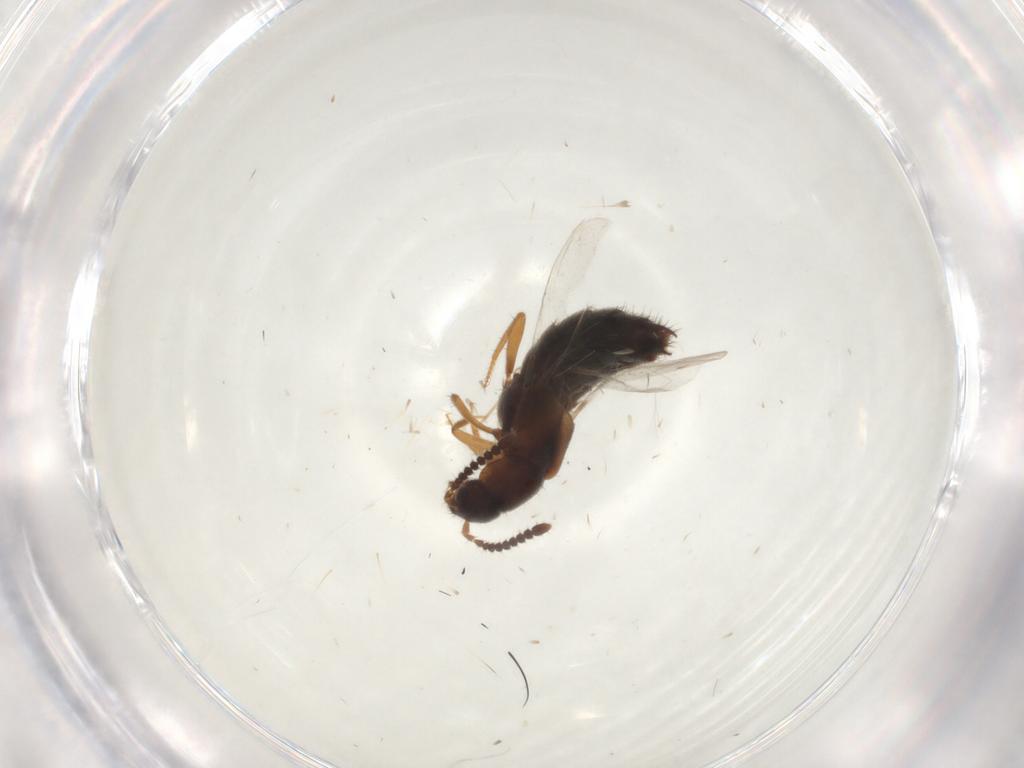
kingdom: Animalia
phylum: Arthropoda
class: Insecta
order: Coleoptera
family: Staphylinidae
